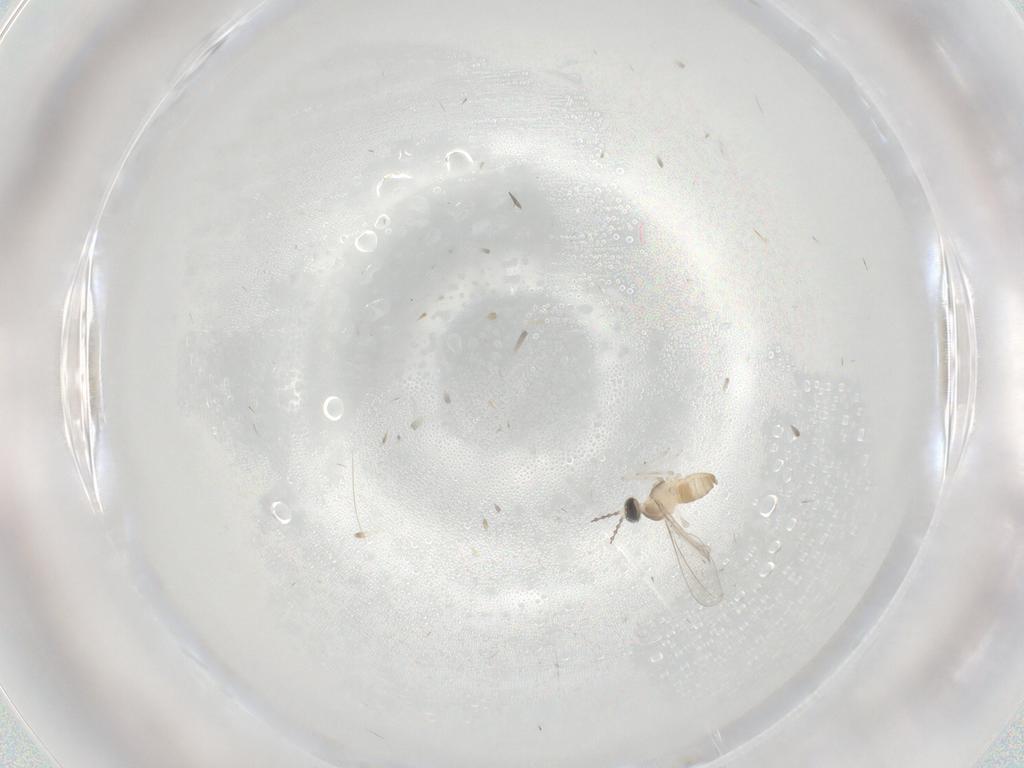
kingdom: Animalia
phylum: Arthropoda
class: Insecta
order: Diptera
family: Cecidomyiidae
